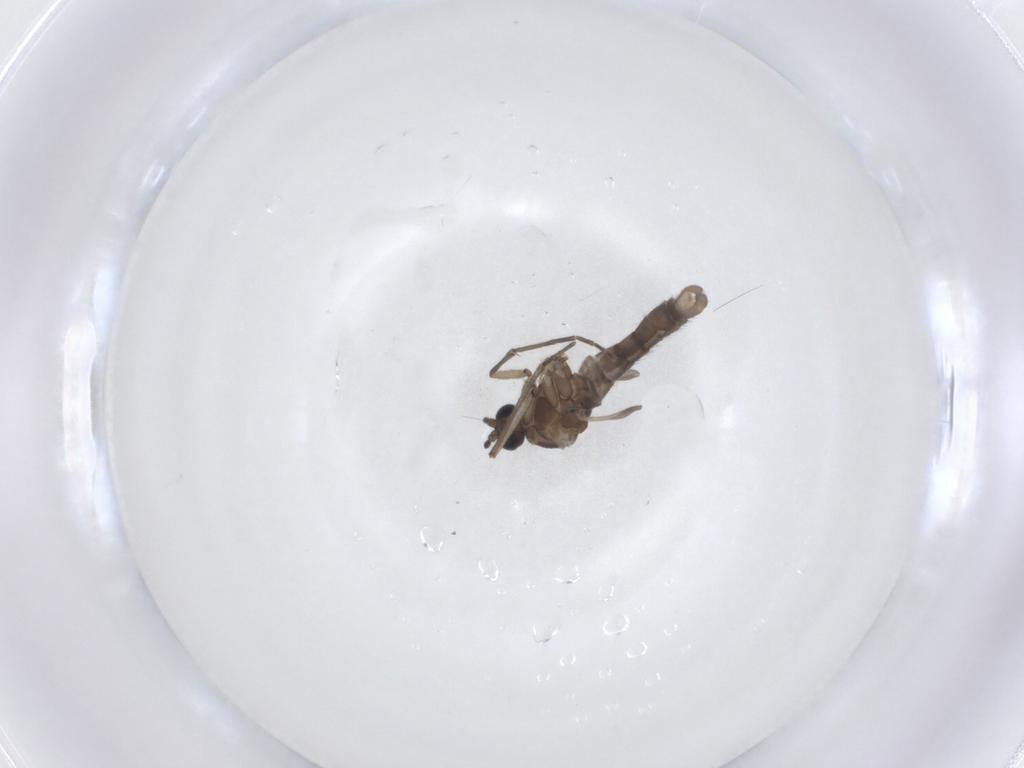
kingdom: Animalia
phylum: Arthropoda
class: Insecta
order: Diptera
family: Sciaridae
